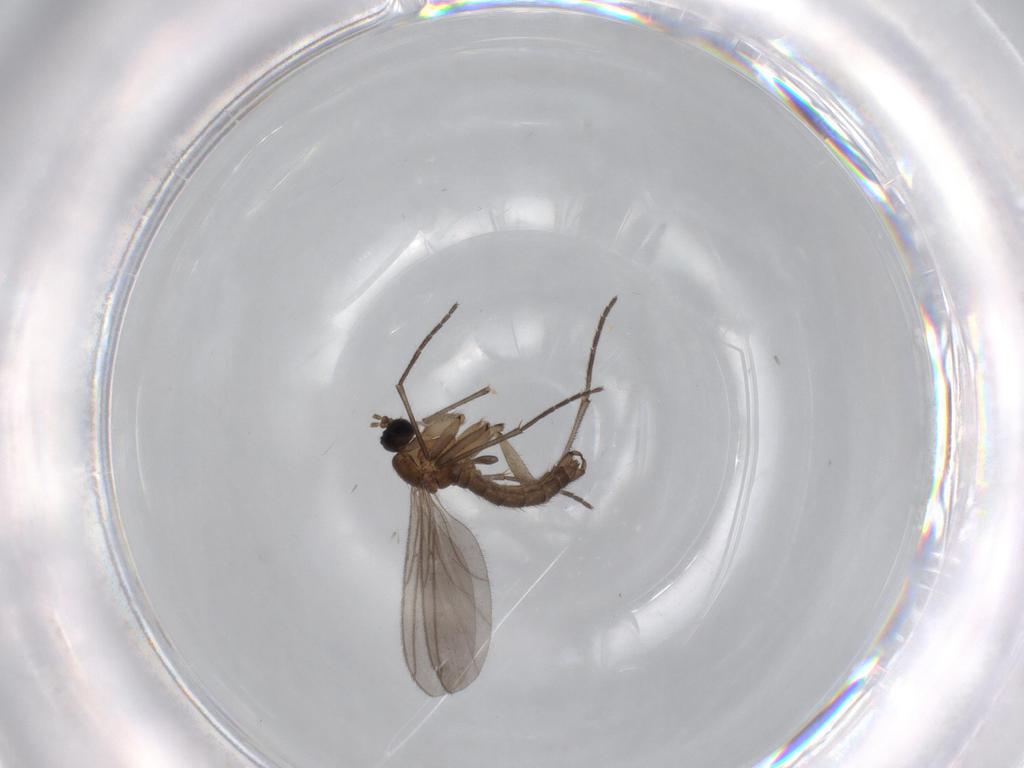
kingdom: Animalia
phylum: Arthropoda
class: Insecta
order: Diptera
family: Sciaridae
